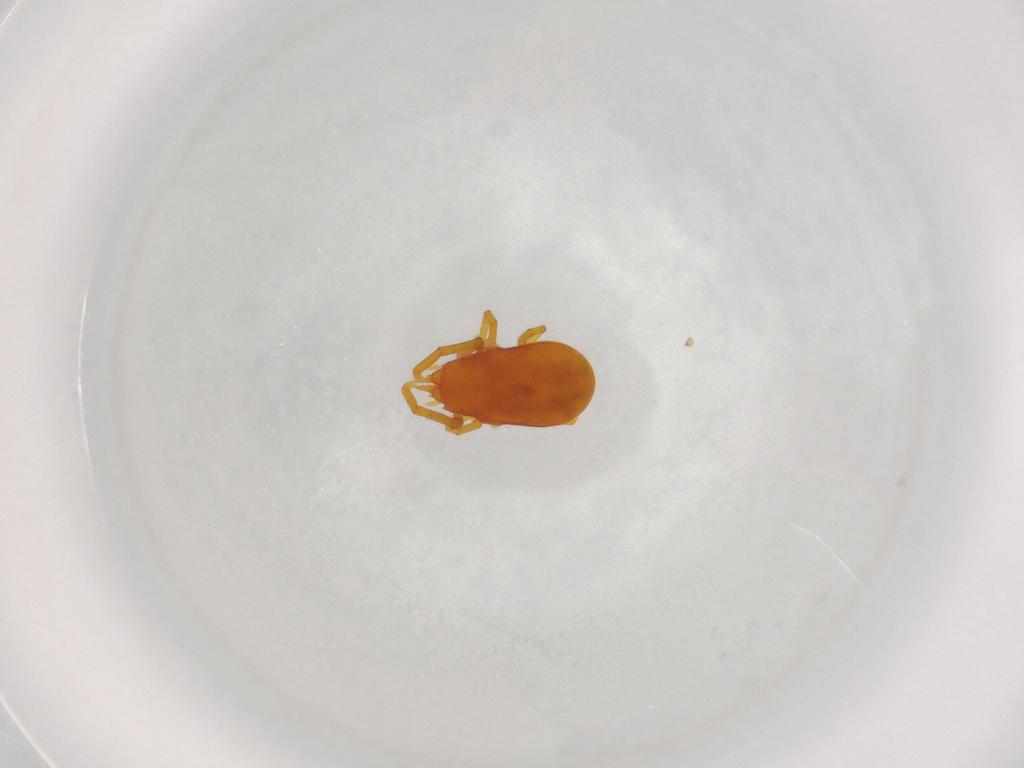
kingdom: Animalia
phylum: Arthropoda
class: Arachnida
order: Trombidiformes
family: Labidostommidae
